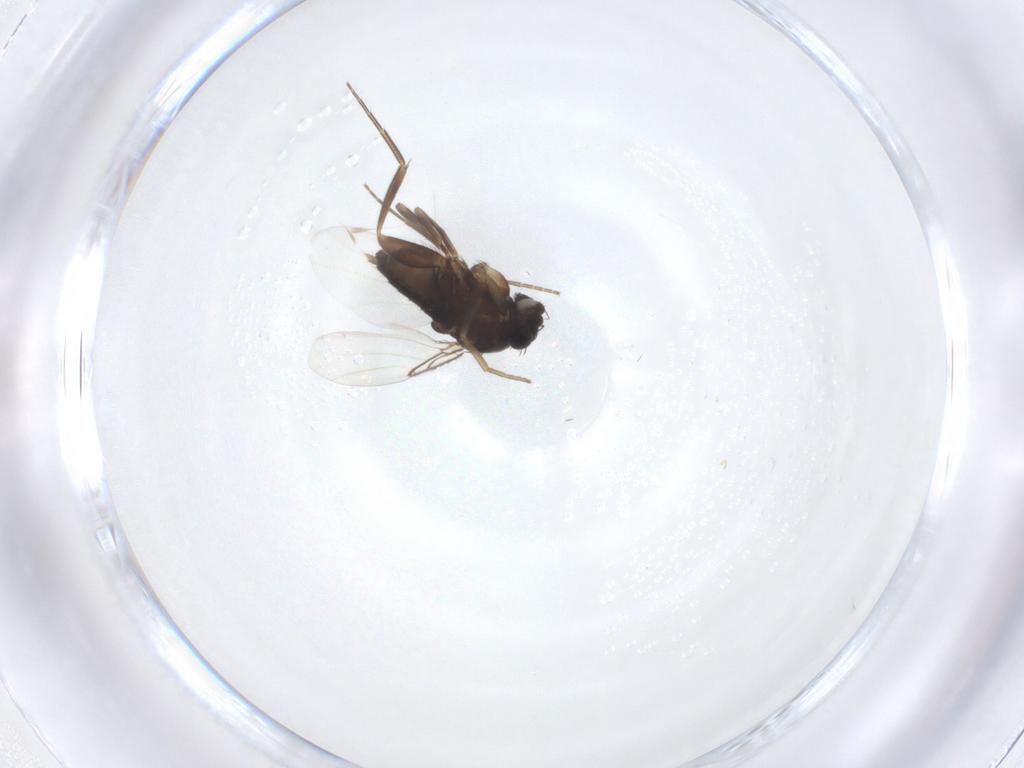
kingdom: Animalia
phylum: Arthropoda
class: Insecta
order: Diptera
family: Phoridae
